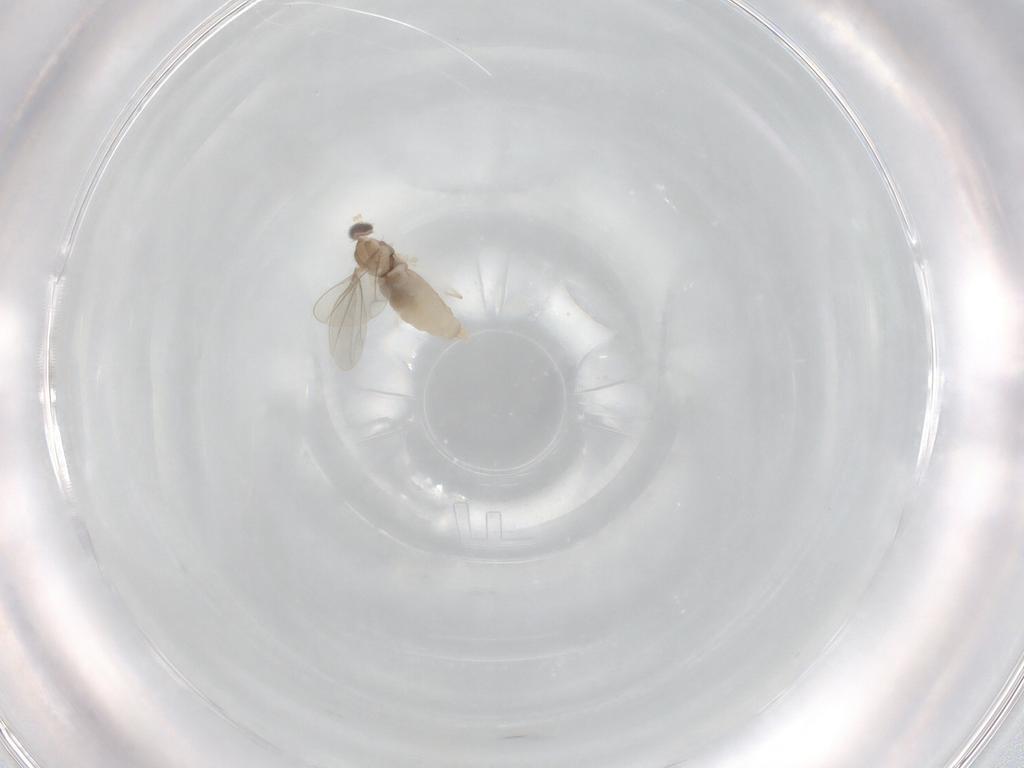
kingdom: Animalia
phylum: Arthropoda
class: Insecta
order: Diptera
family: Cecidomyiidae
